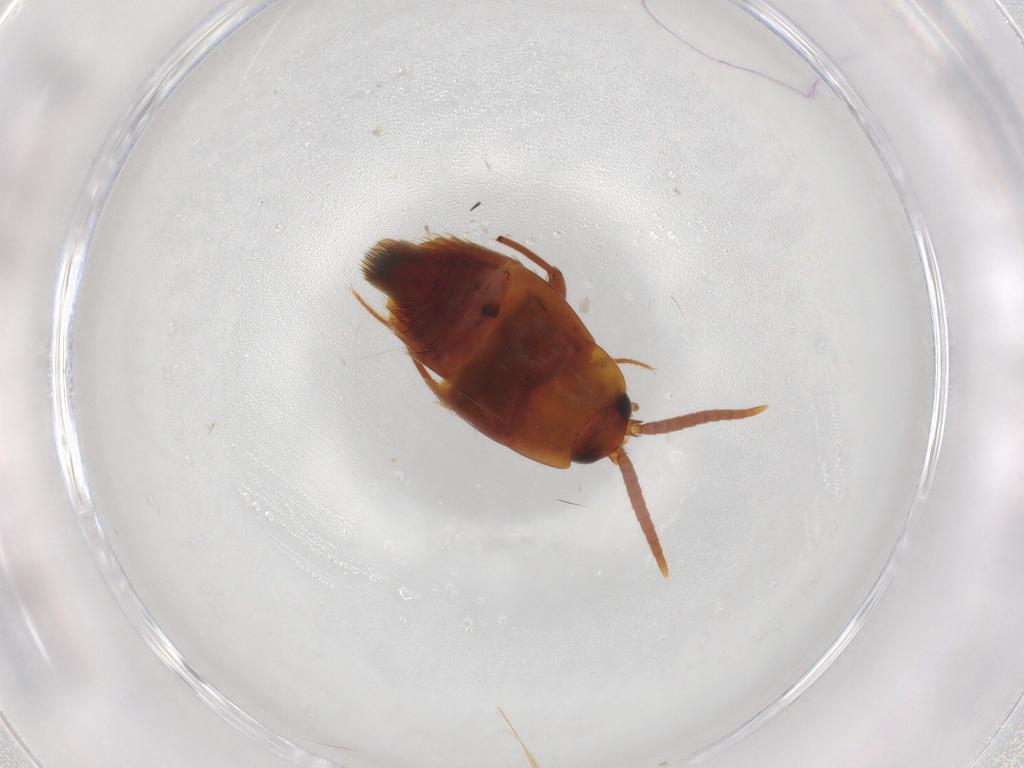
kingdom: Animalia
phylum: Arthropoda
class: Insecta
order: Coleoptera
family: Staphylinidae
